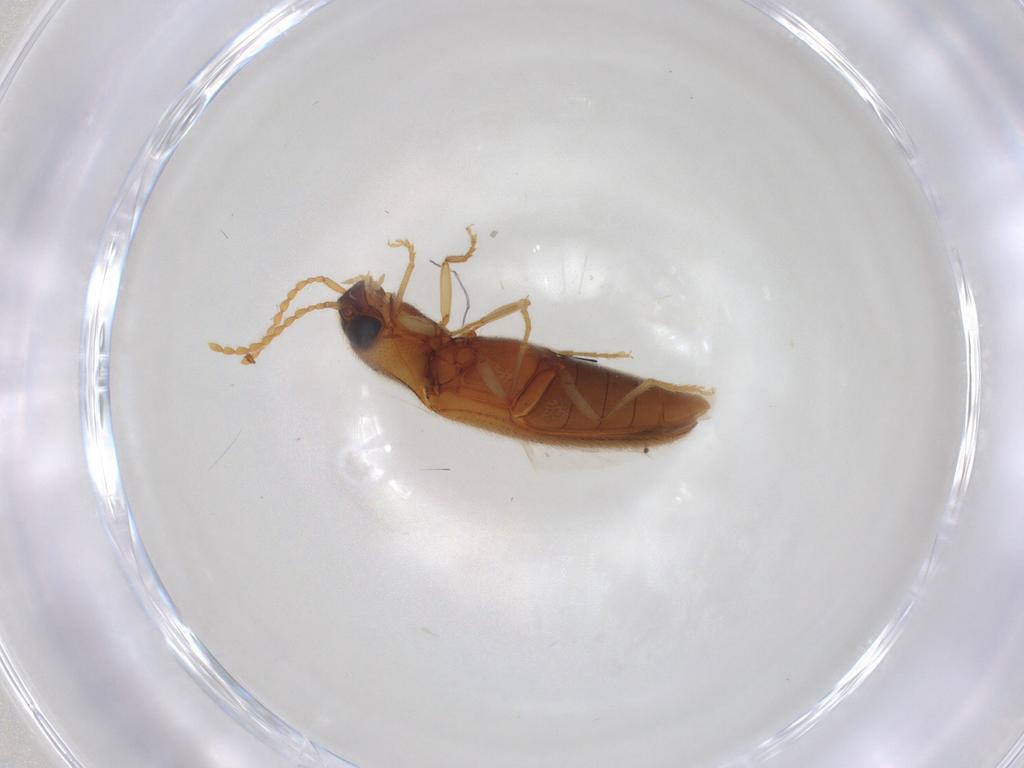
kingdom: Animalia
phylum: Arthropoda
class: Insecta
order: Coleoptera
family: Elateridae
